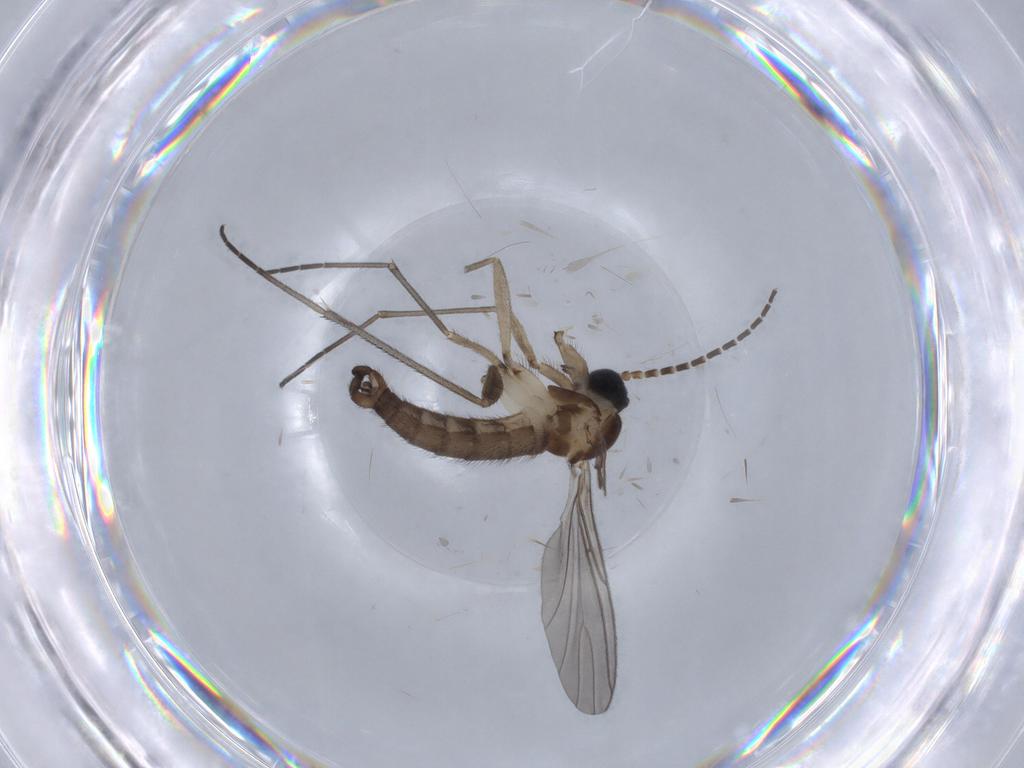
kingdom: Animalia
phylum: Arthropoda
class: Insecta
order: Diptera
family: Sciaridae
